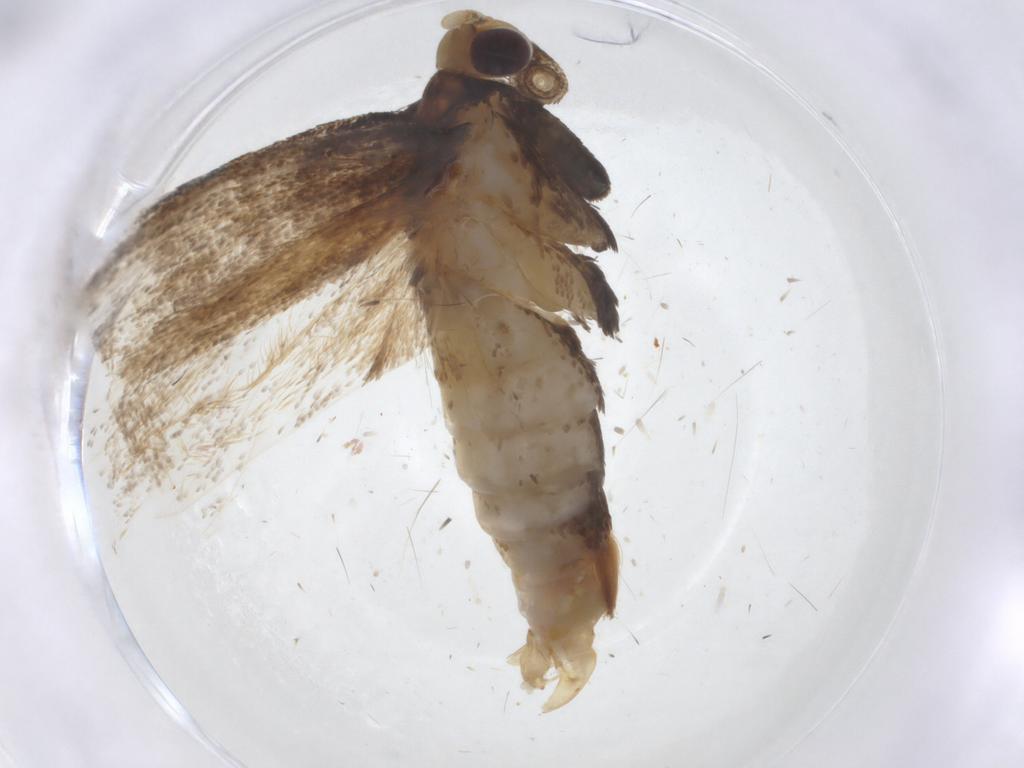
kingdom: Animalia
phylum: Arthropoda
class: Insecta
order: Lepidoptera
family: Lecithoceridae
